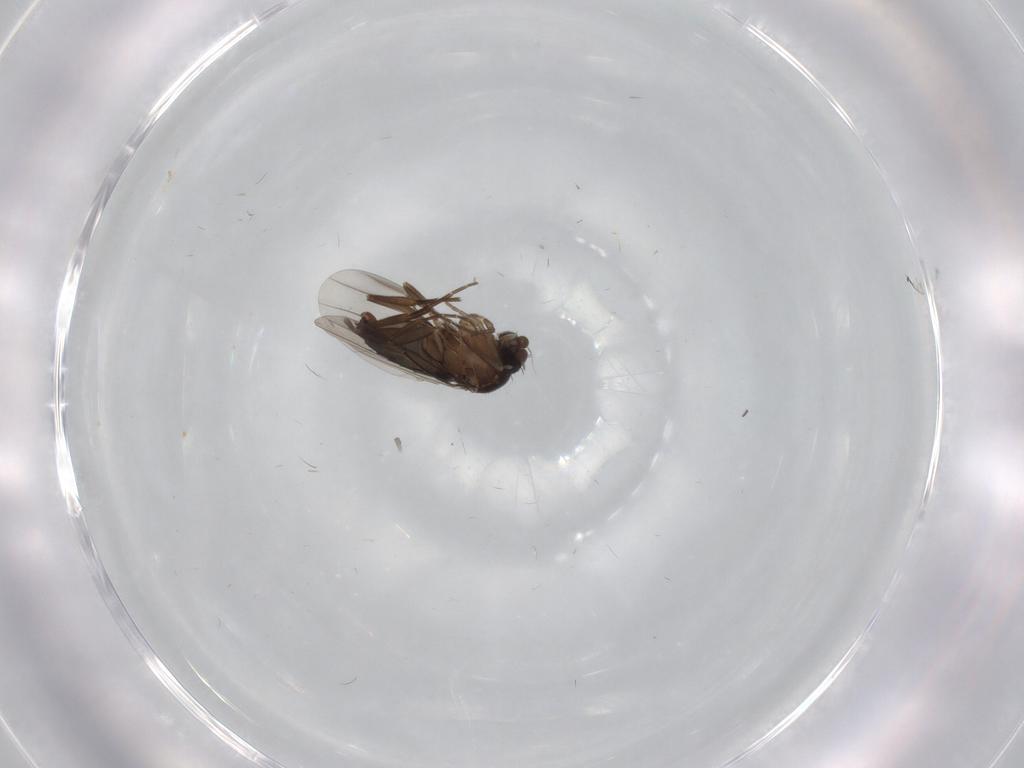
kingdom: Animalia
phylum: Arthropoda
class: Insecta
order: Diptera
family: Phoridae
